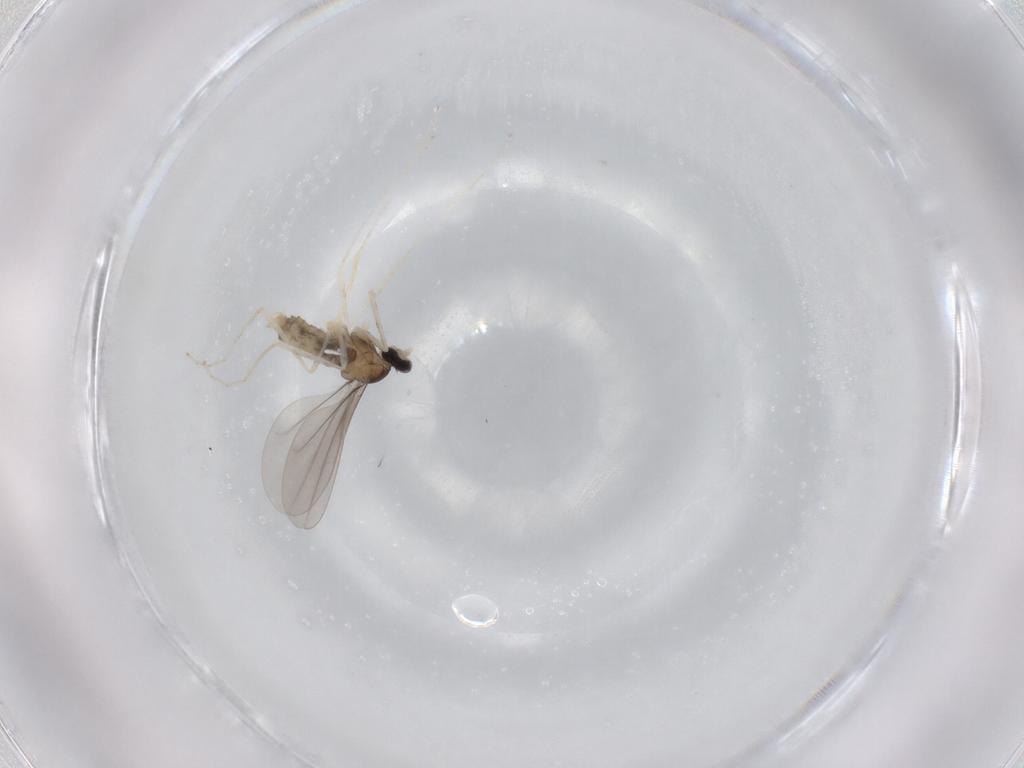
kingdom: Animalia
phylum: Arthropoda
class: Insecta
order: Diptera
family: Cecidomyiidae
